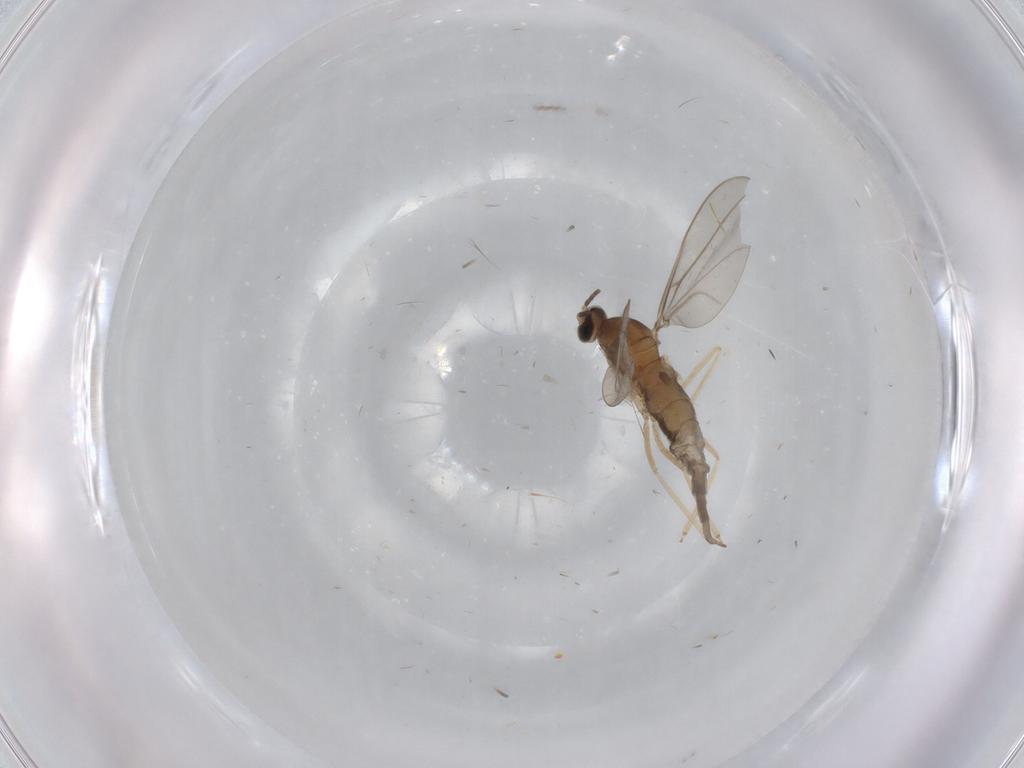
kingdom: Animalia
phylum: Arthropoda
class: Insecta
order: Diptera
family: Cecidomyiidae
